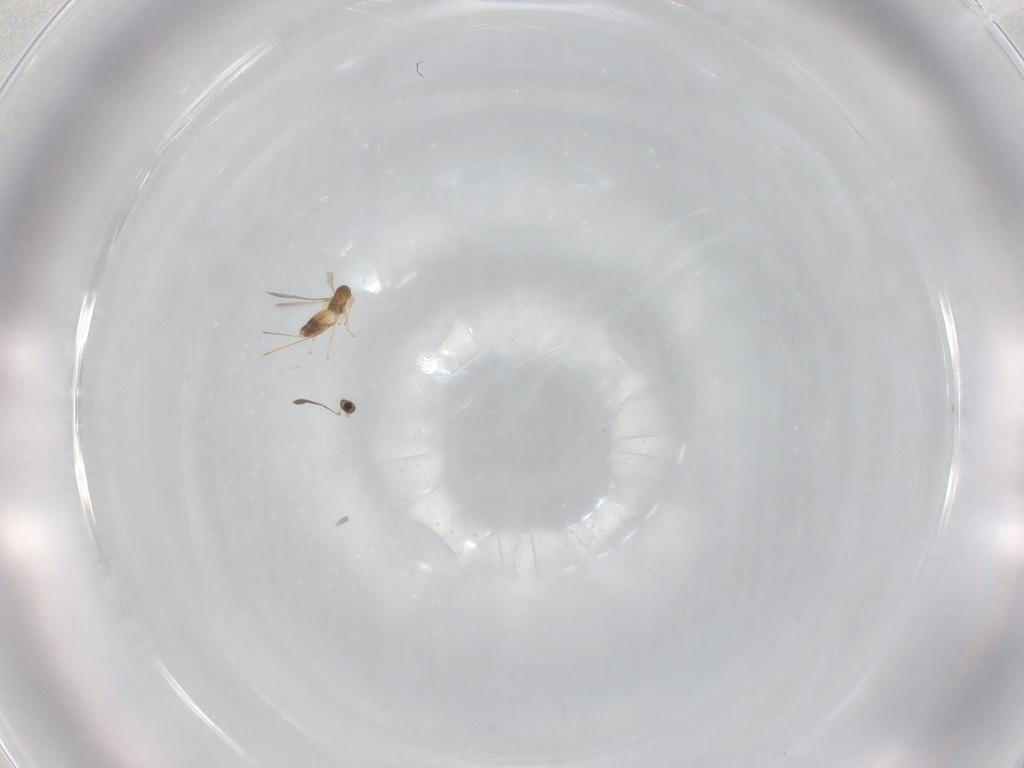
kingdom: Animalia
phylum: Arthropoda
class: Insecta
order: Hymenoptera
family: Mymaridae
